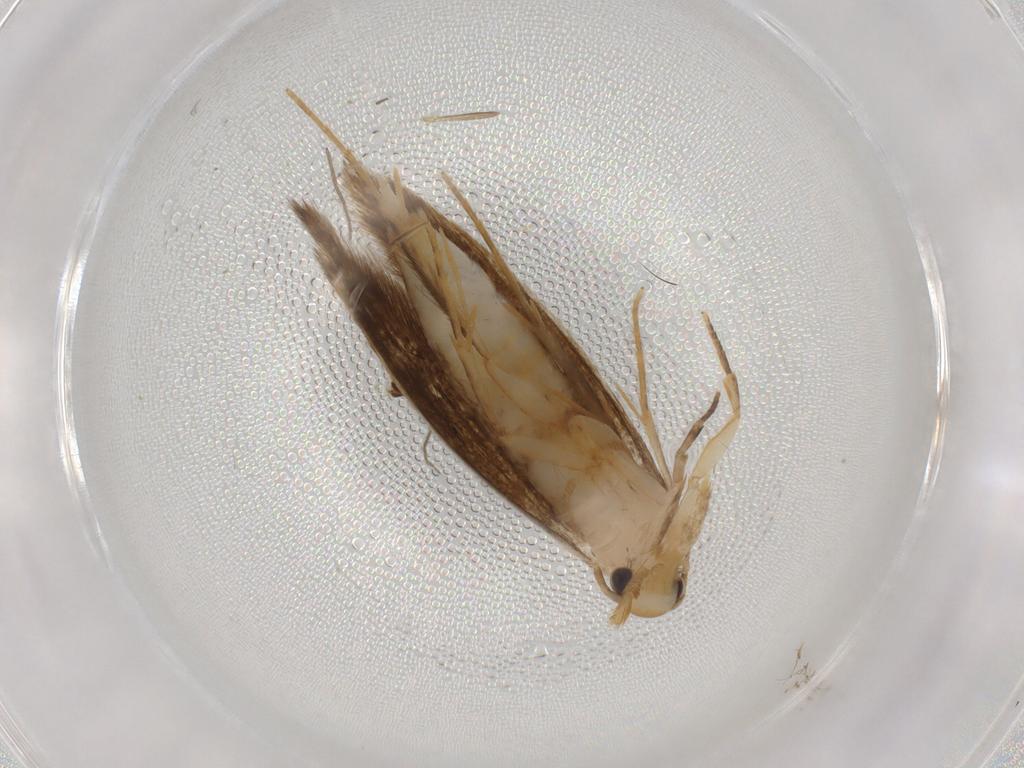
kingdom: Animalia
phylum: Arthropoda
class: Insecta
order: Lepidoptera
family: Tineidae
